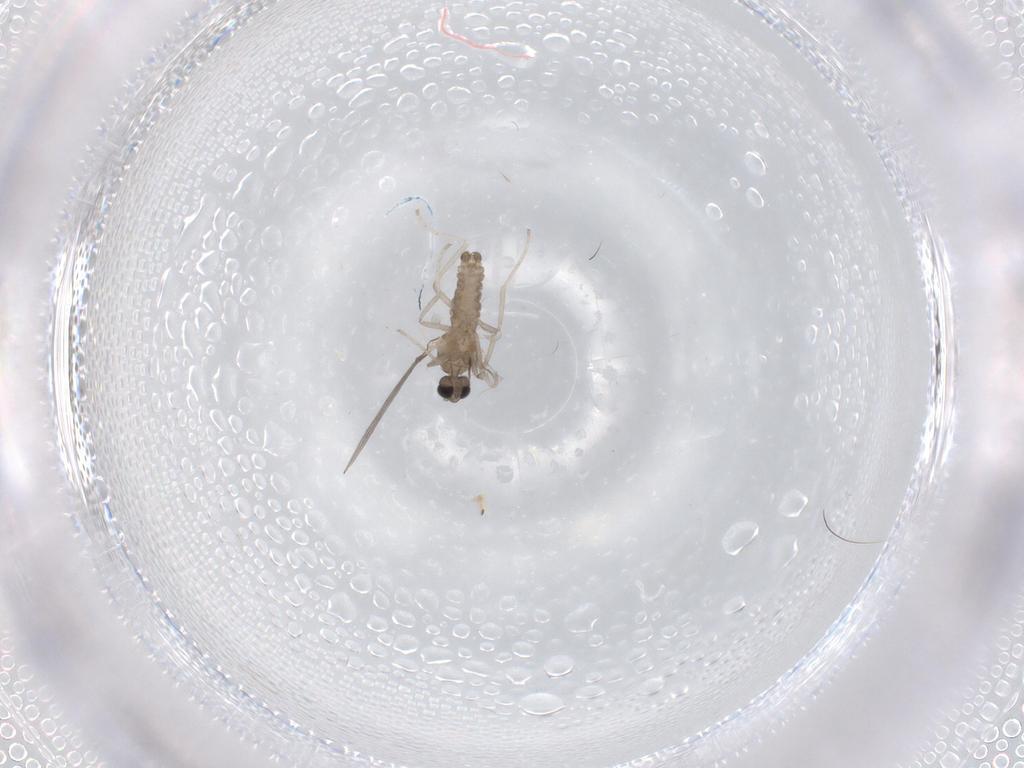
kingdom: Animalia
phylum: Arthropoda
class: Insecta
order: Diptera
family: Cecidomyiidae
